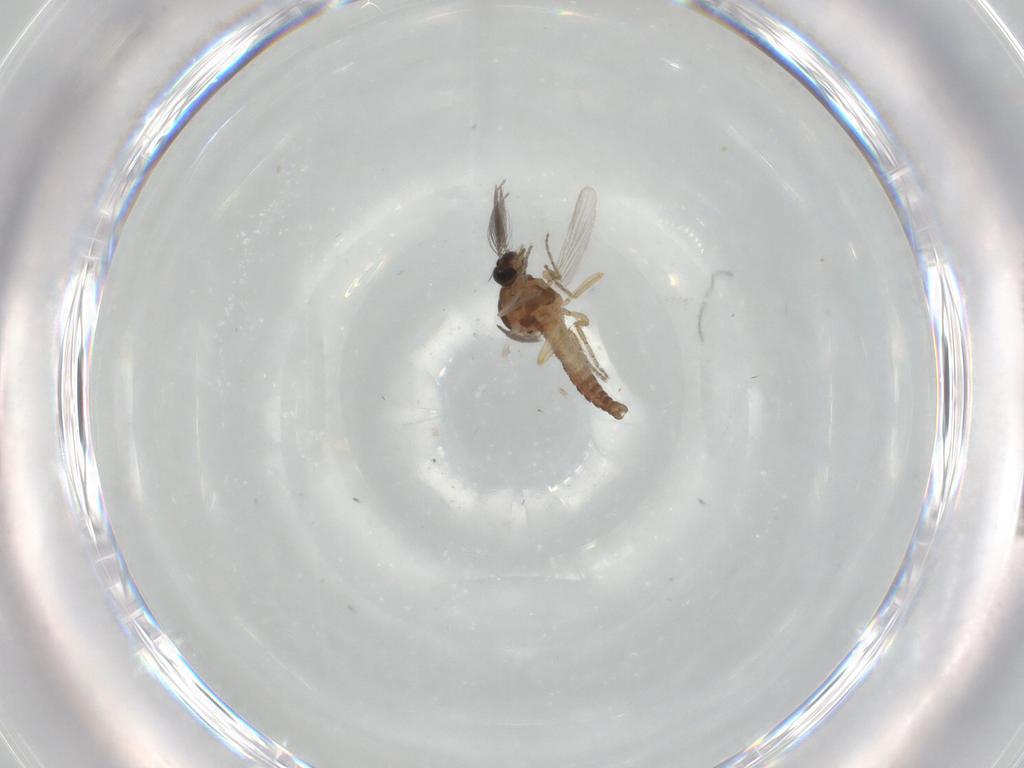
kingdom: Animalia
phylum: Arthropoda
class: Insecta
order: Diptera
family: Ceratopogonidae
